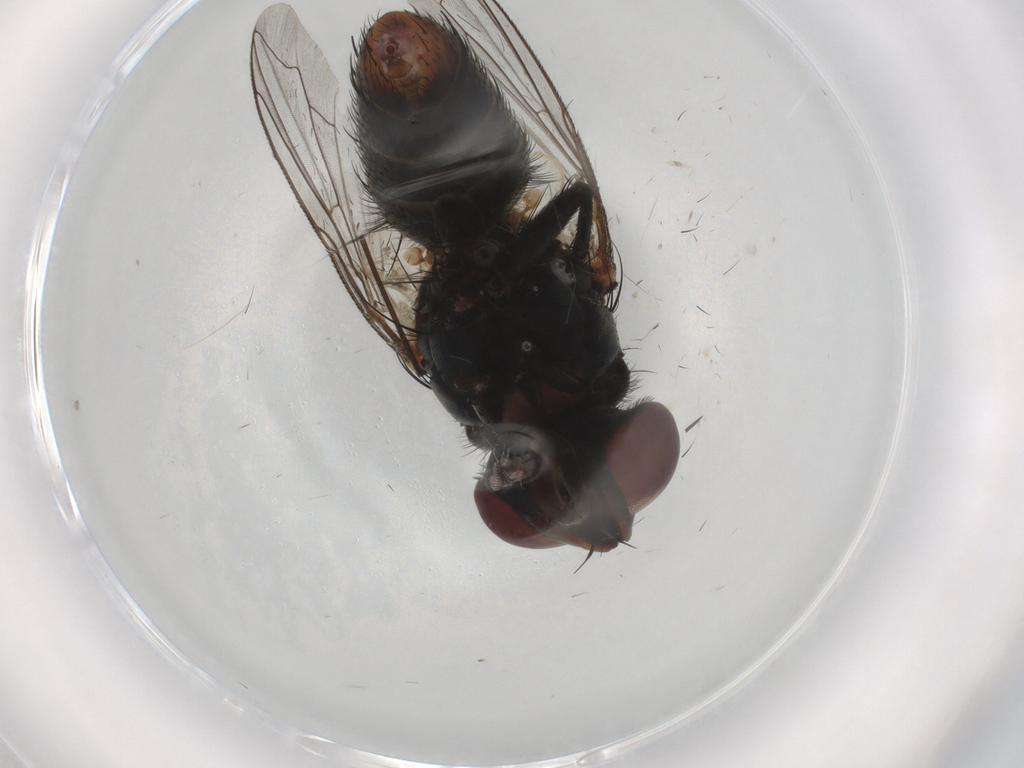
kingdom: Animalia
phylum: Arthropoda
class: Insecta
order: Diptera
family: Sarcophagidae
